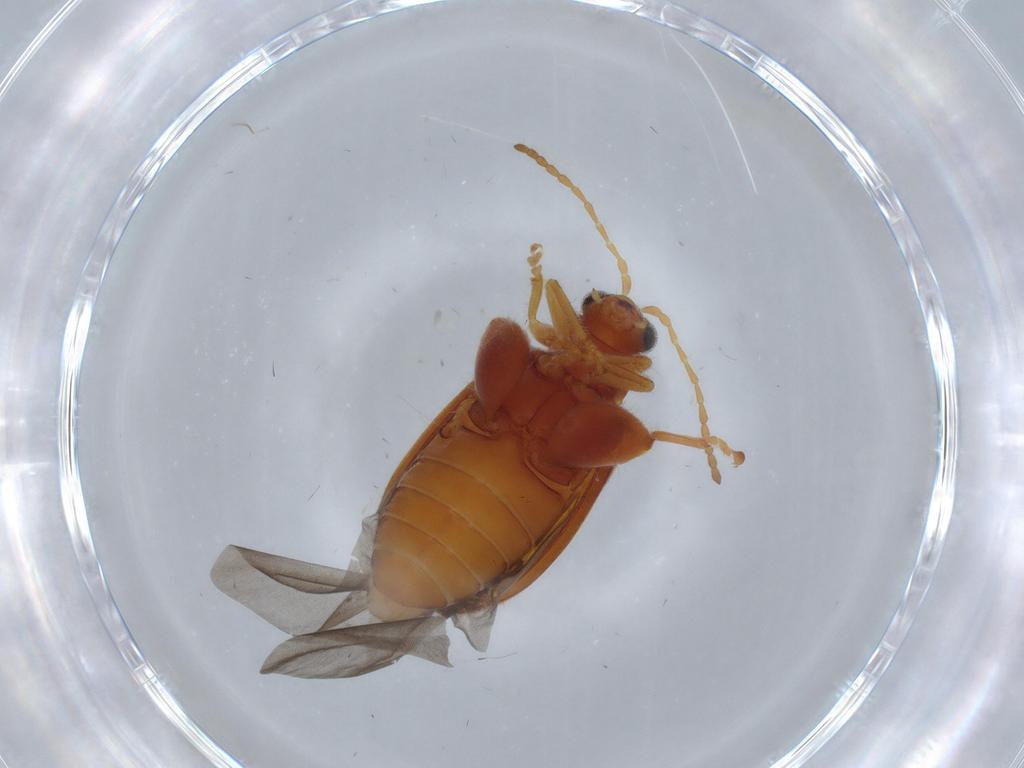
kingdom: Animalia
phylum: Arthropoda
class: Insecta
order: Coleoptera
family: Chrysomelidae
